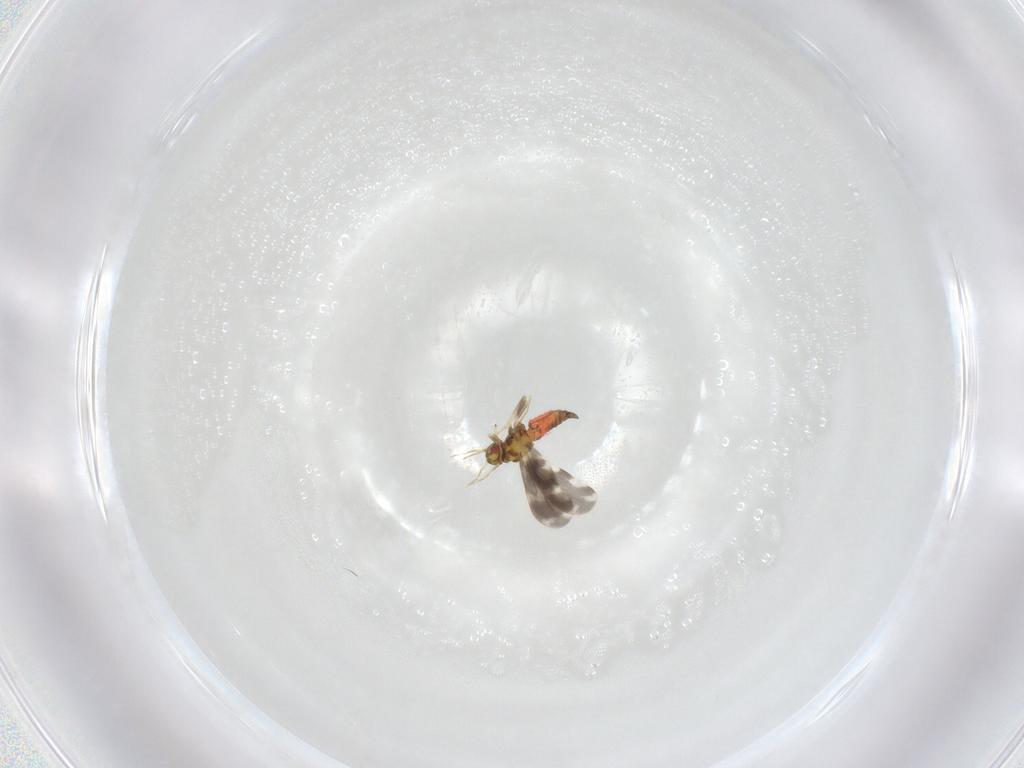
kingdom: Animalia
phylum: Arthropoda
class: Insecta
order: Hemiptera
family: Aleyrodidae
